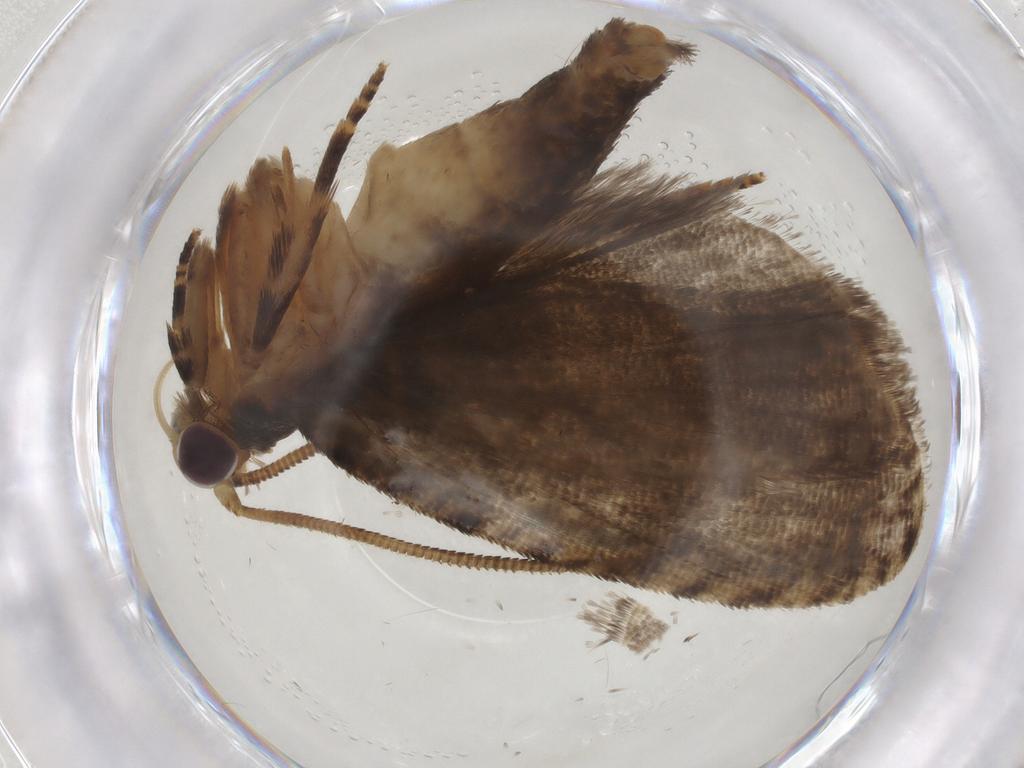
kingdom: Animalia
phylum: Arthropoda
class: Insecta
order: Lepidoptera
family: Tortricidae
